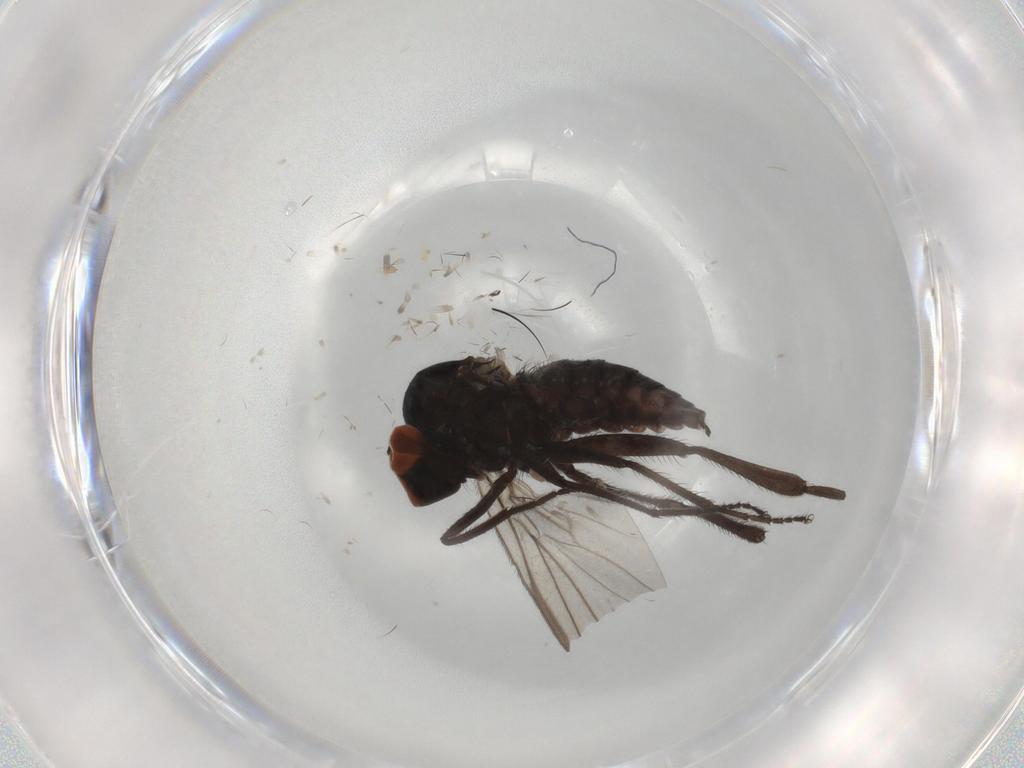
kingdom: Animalia
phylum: Arthropoda
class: Insecta
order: Diptera
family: Hybotidae
